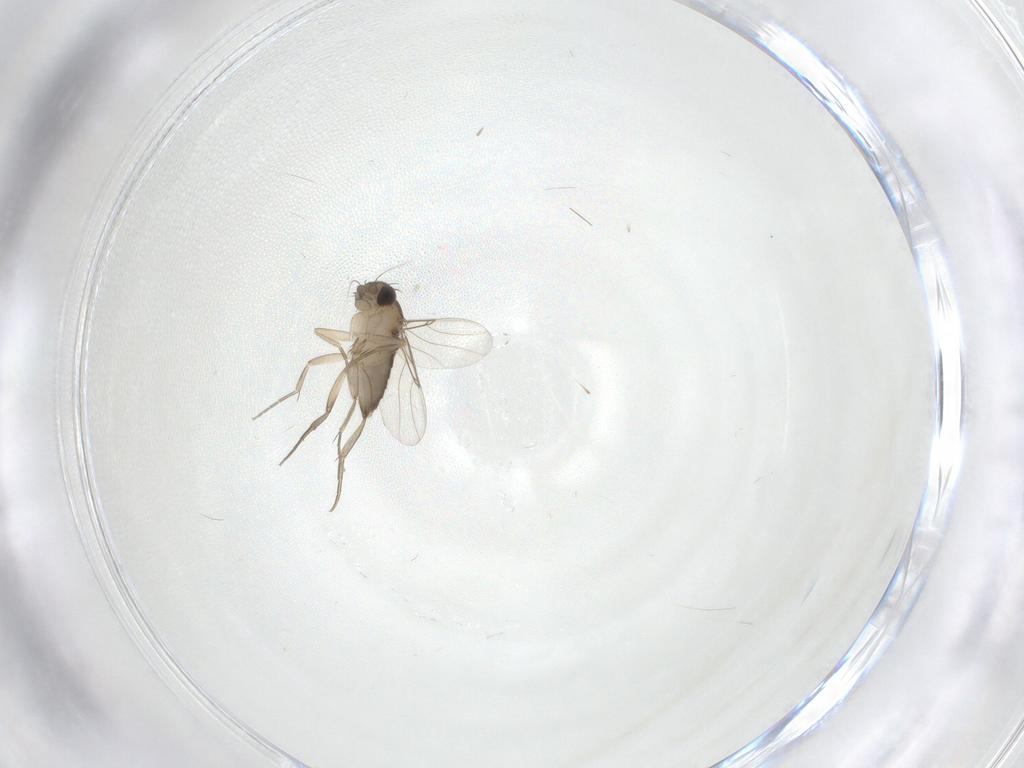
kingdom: Animalia
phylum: Arthropoda
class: Insecta
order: Diptera
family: Phoridae
